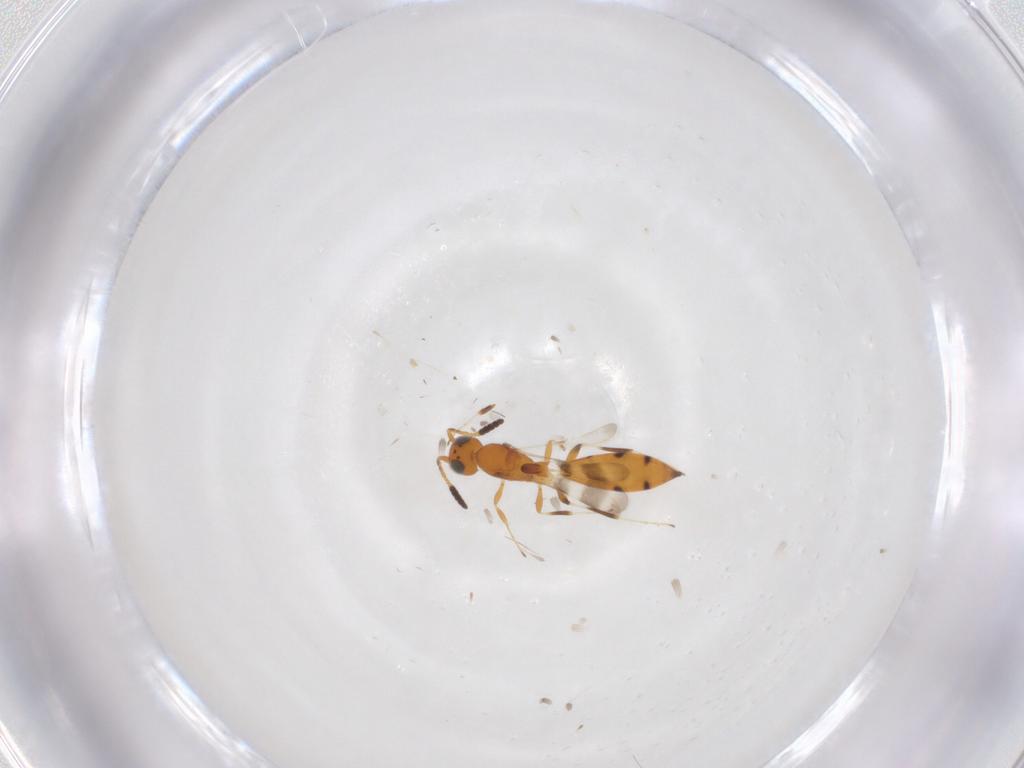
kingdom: Animalia
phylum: Arthropoda
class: Insecta
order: Hymenoptera
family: Scelionidae
